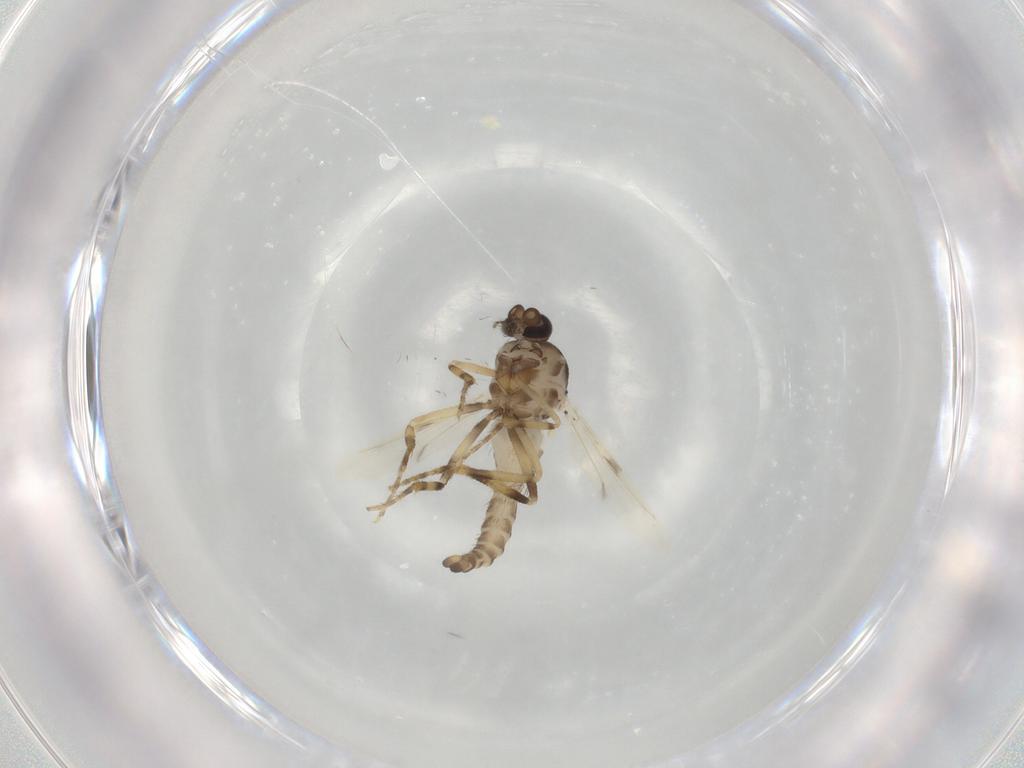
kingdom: Animalia
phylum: Arthropoda
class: Insecta
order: Diptera
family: Ceratopogonidae
